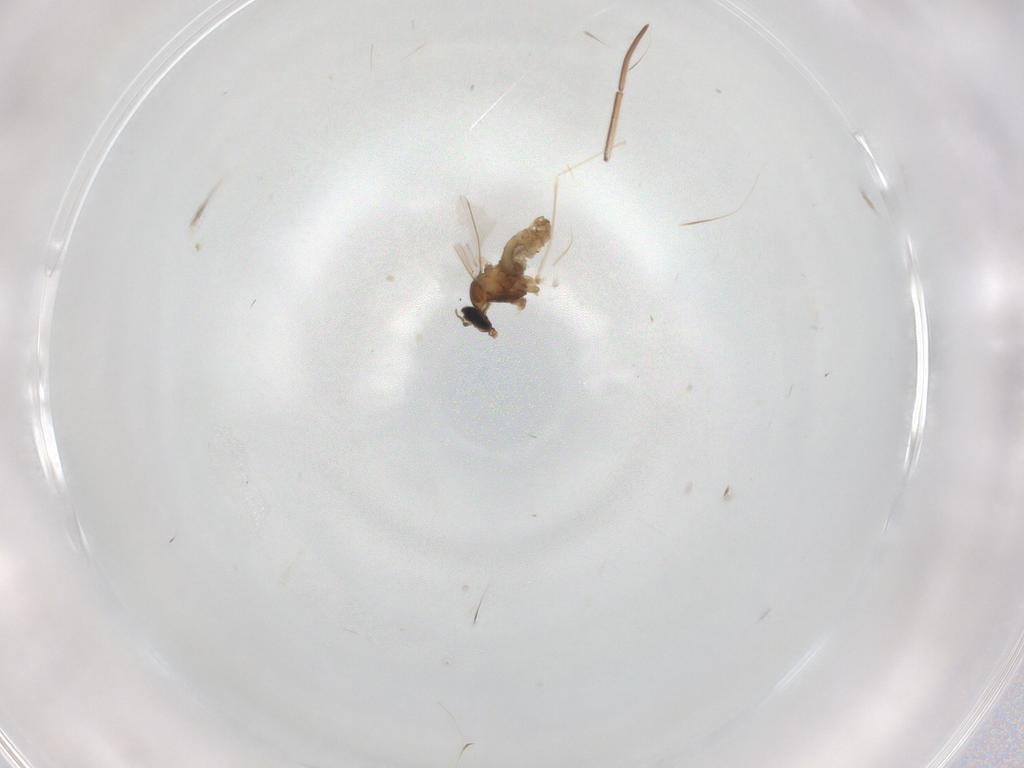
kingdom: Animalia
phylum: Arthropoda
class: Insecta
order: Diptera
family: Cecidomyiidae
